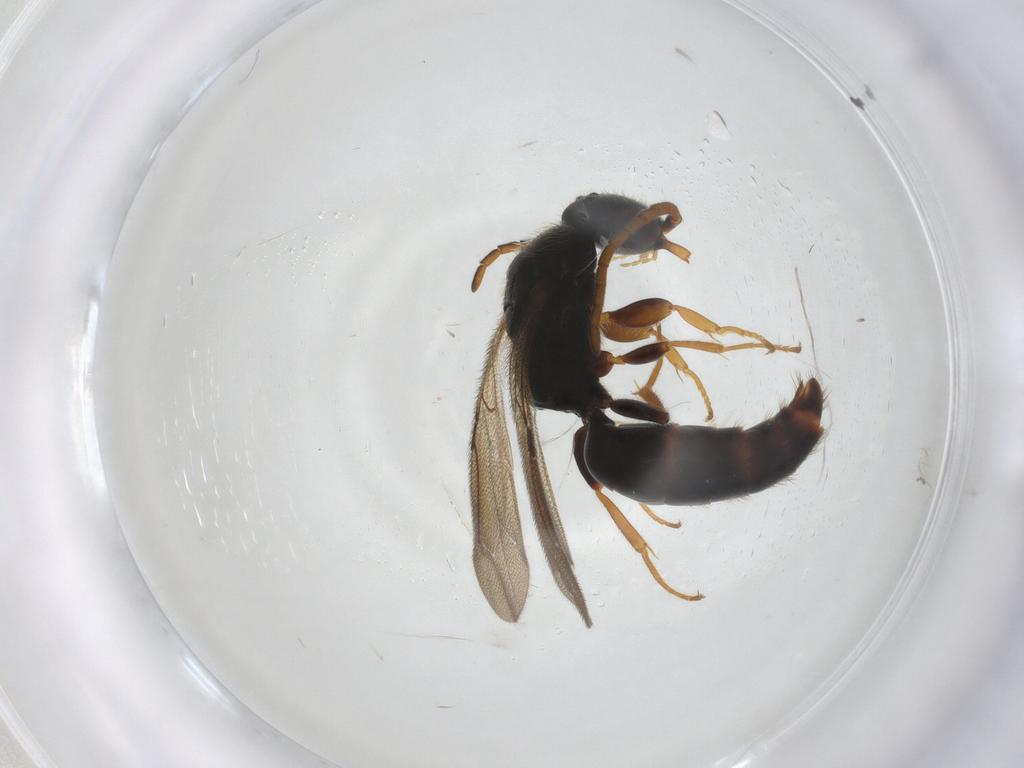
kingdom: Animalia
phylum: Arthropoda
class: Insecta
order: Hymenoptera
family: Bethylidae
